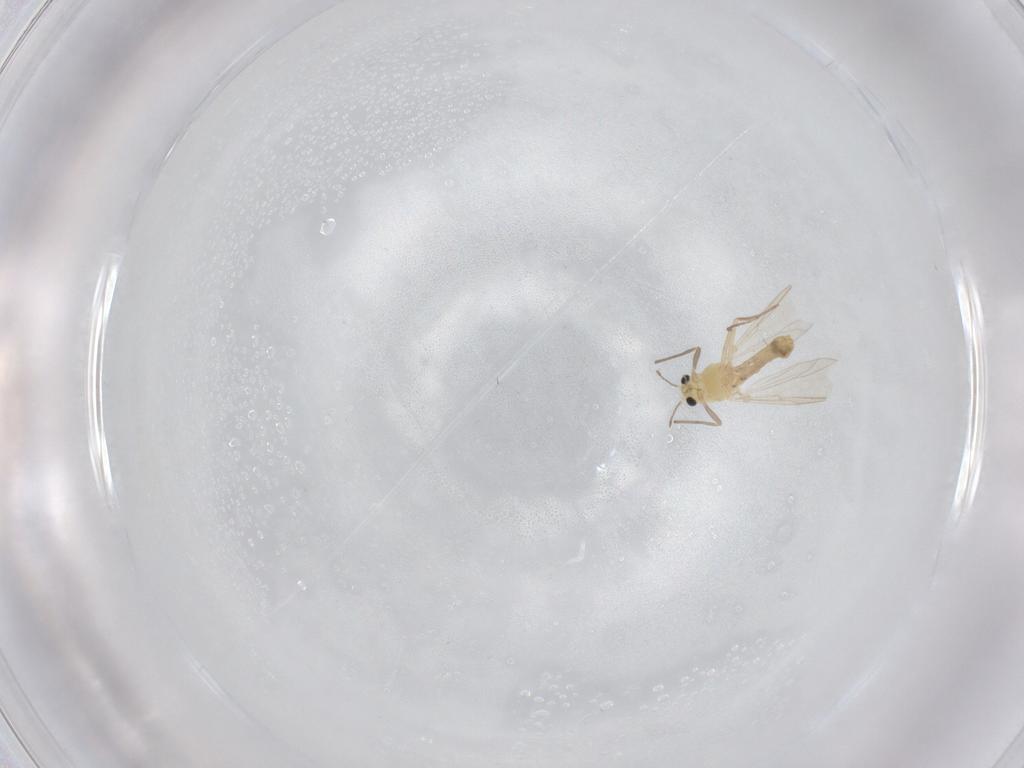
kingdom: Animalia
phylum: Arthropoda
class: Insecta
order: Diptera
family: Chironomidae
